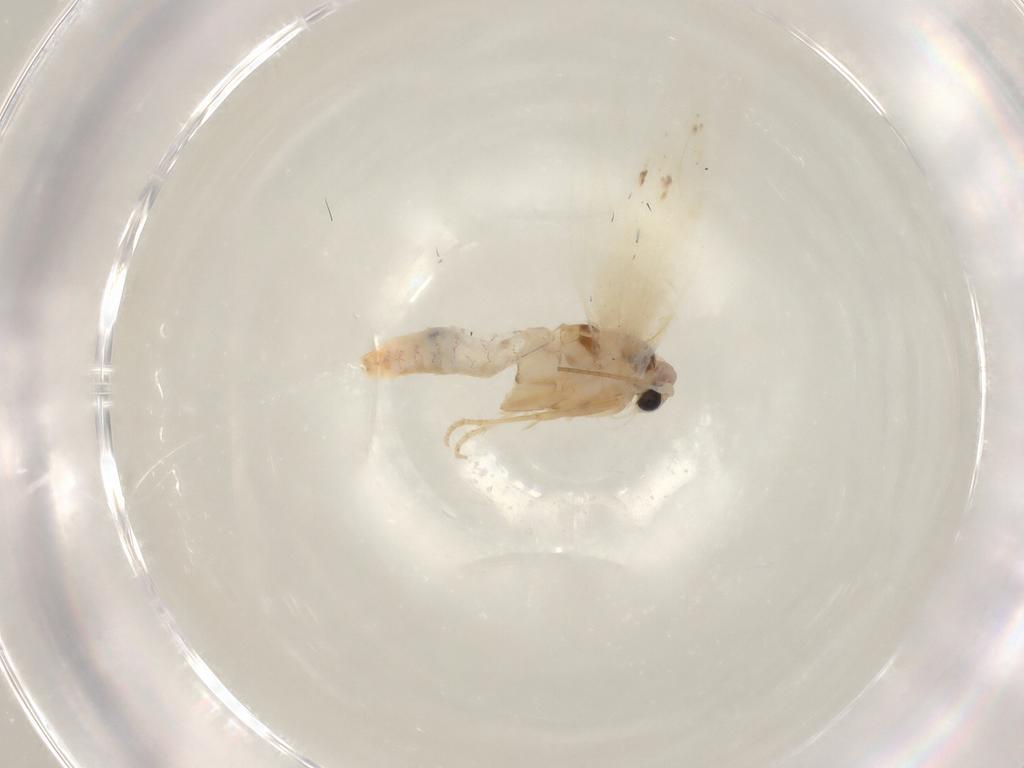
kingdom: Animalia
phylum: Arthropoda
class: Insecta
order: Lepidoptera
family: Gelechiidae
